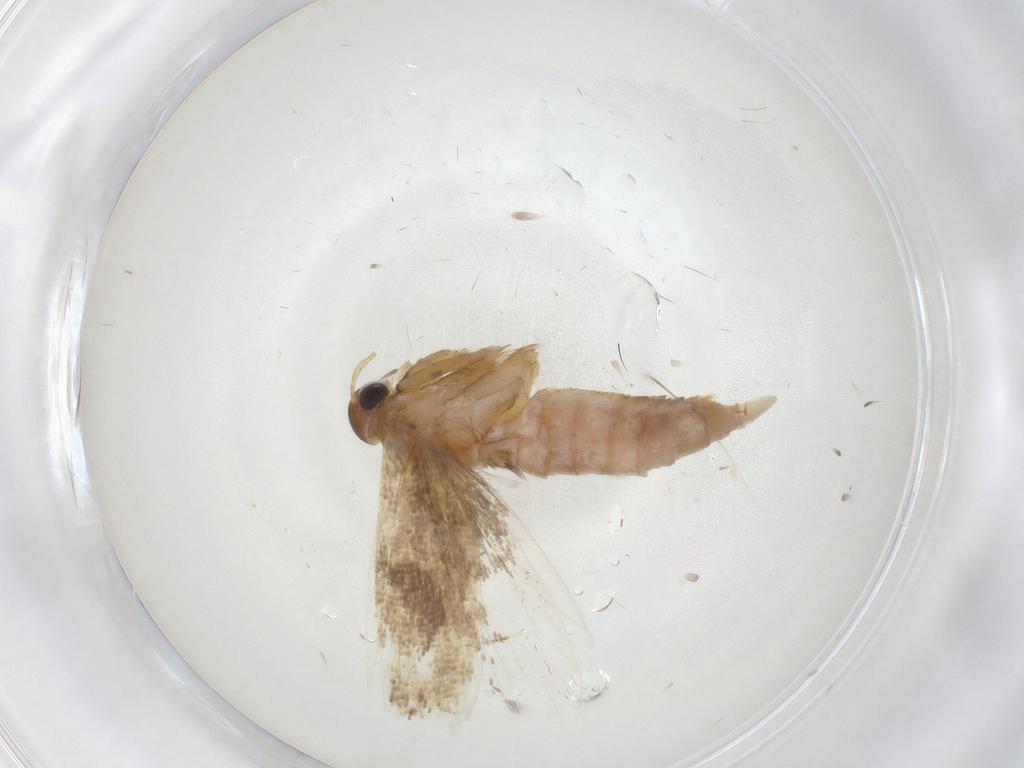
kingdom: Animalia
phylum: Arthropoda
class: Insecta
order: Lepidoptera
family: Gelechiidae
